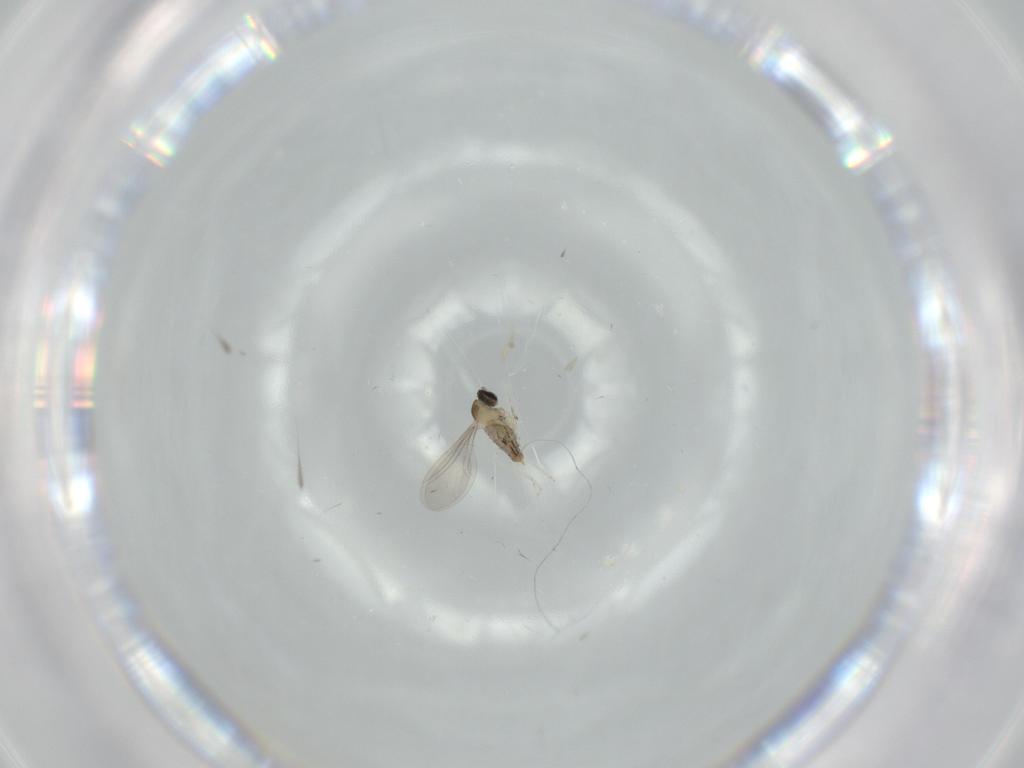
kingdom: Animalia
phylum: Arthropoda
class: Insecta
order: Diptera
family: Cecidomyiidae
